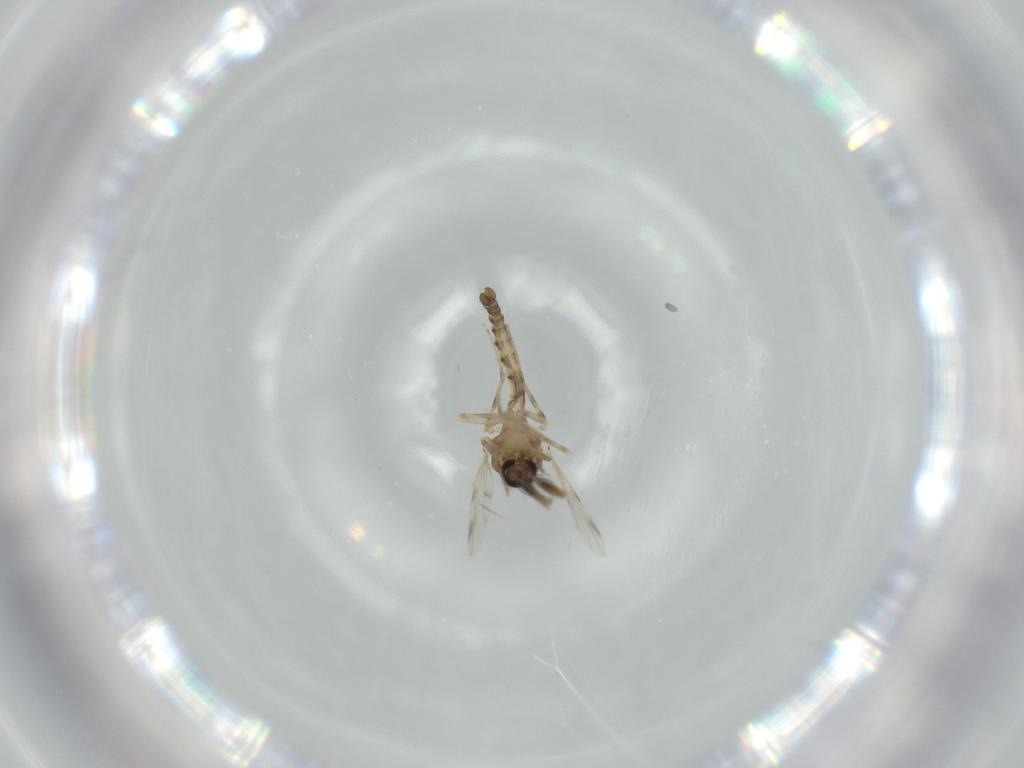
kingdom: Animalia
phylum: Arthropoda
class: Insecta
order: Diptera
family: Ceratopogonidae
